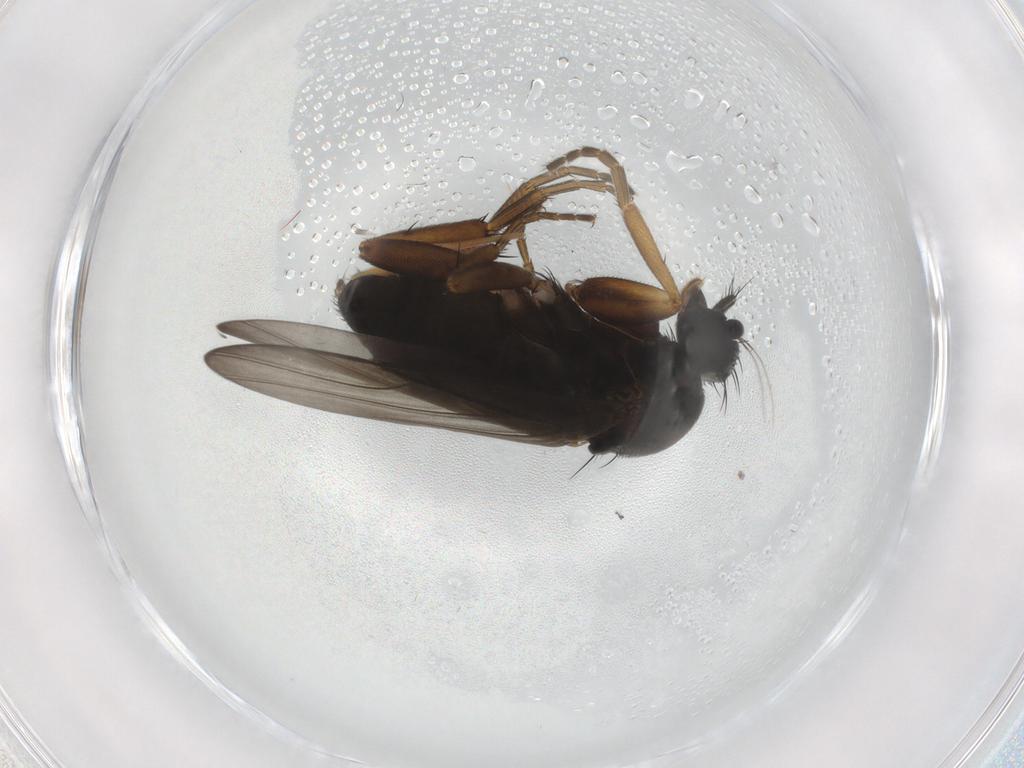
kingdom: Animalia
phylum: Arthropoda
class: Insecta
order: Diptera
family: Phoridae
